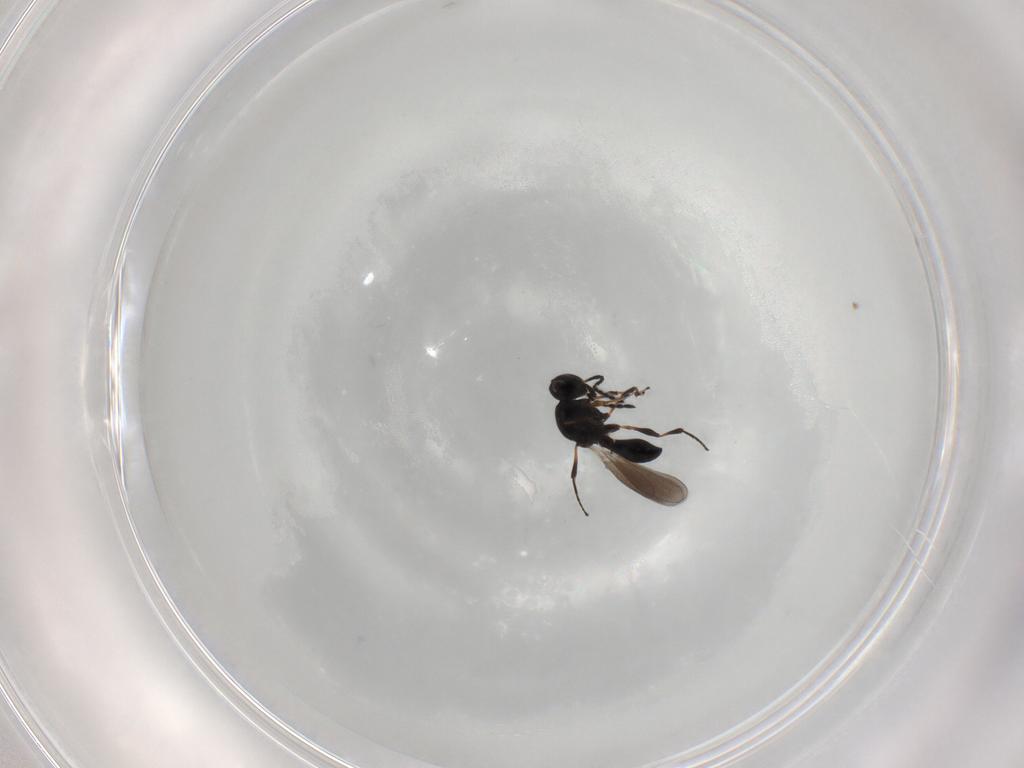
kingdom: Animalia
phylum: Arthropoda
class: Insecta
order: Hymenoptera
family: Platygastridae
